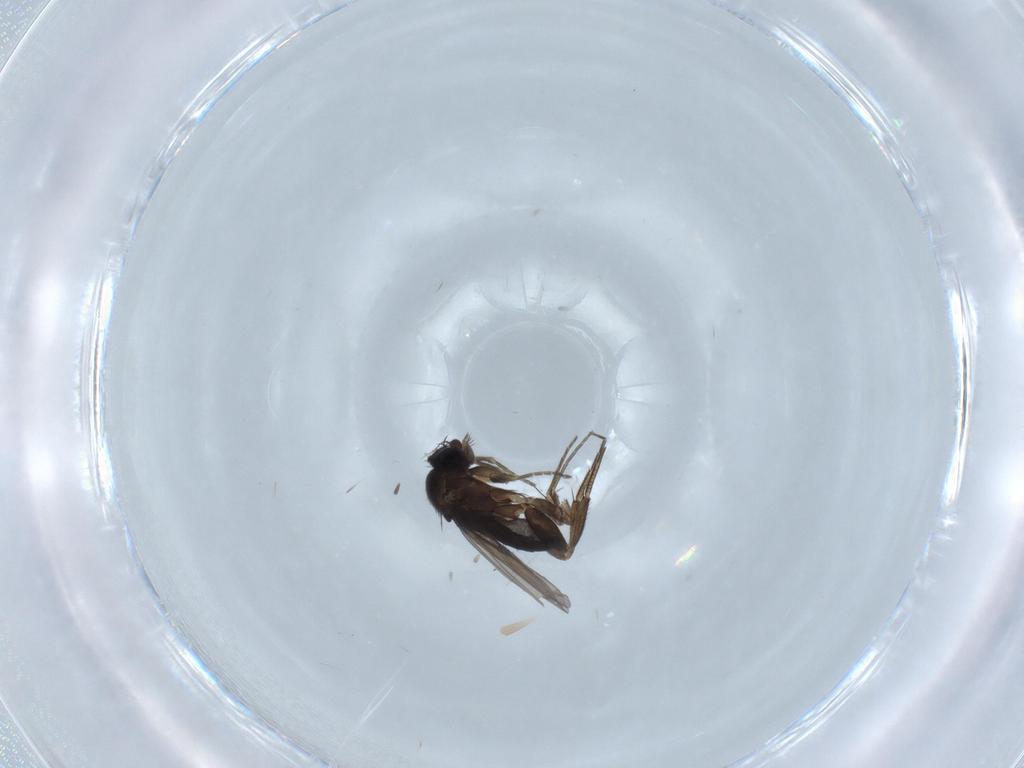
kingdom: Animalia
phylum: Arthropoda
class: Insecta
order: Diptera
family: Phoridae
